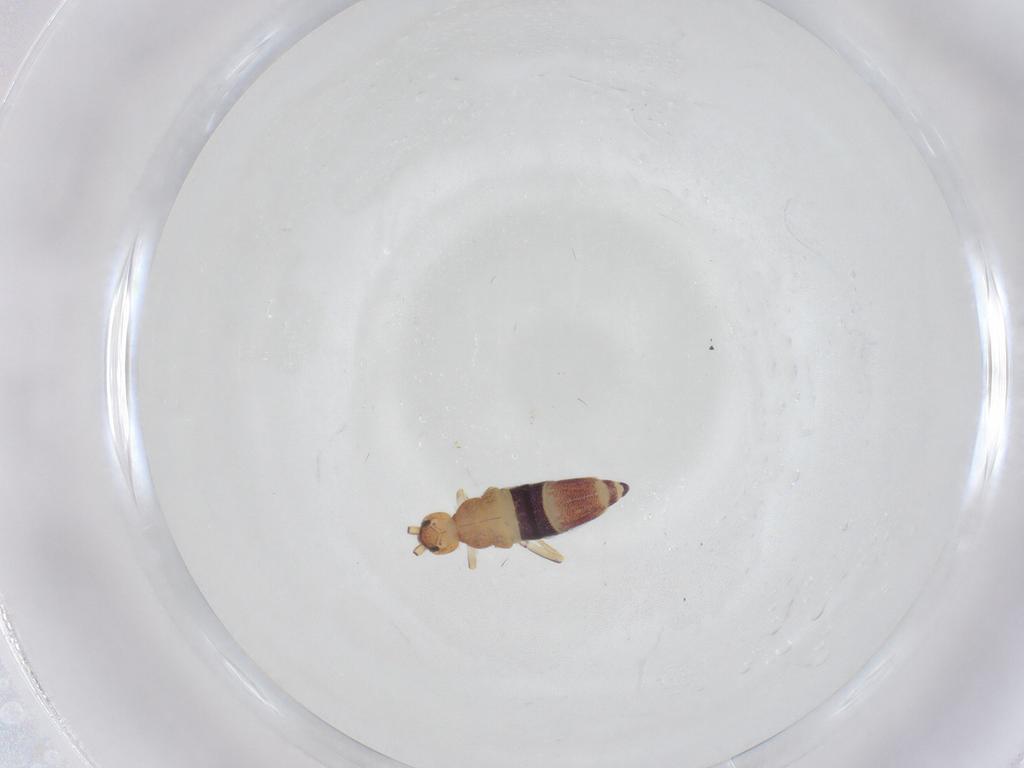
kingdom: Animalia
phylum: Arthropoda
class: Collembola
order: Entomobryomorpha
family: Entomobryidae
